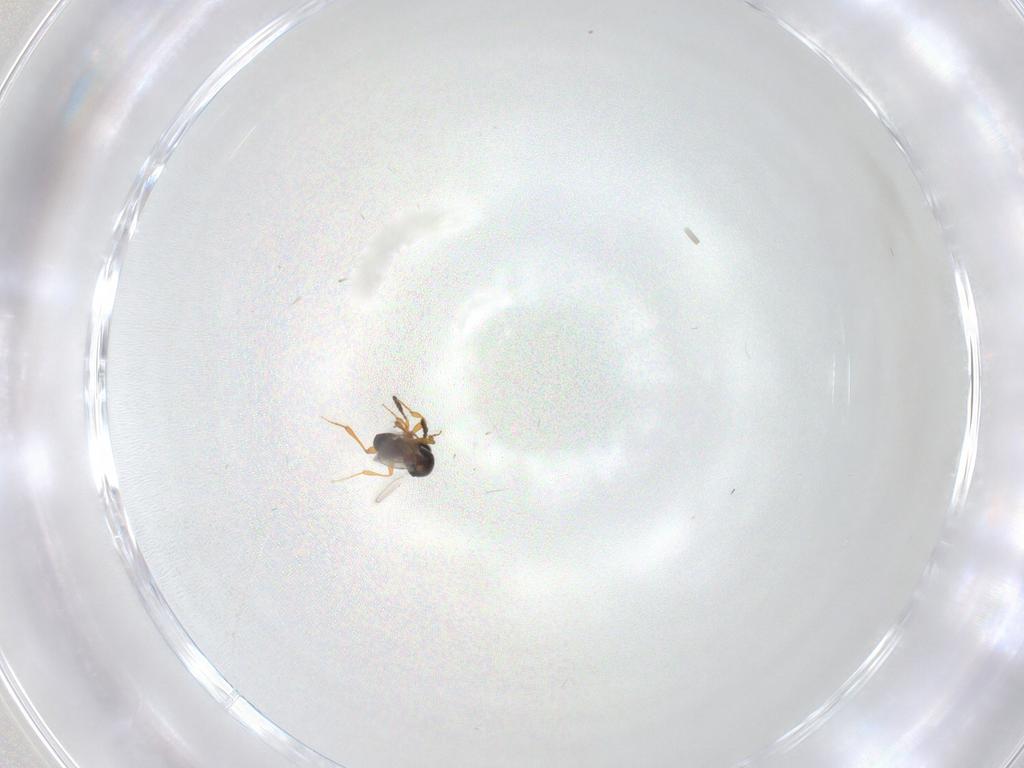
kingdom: Animalia
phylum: Arthropoda
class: Insecta
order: Hymenoptera
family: Platygastridae
